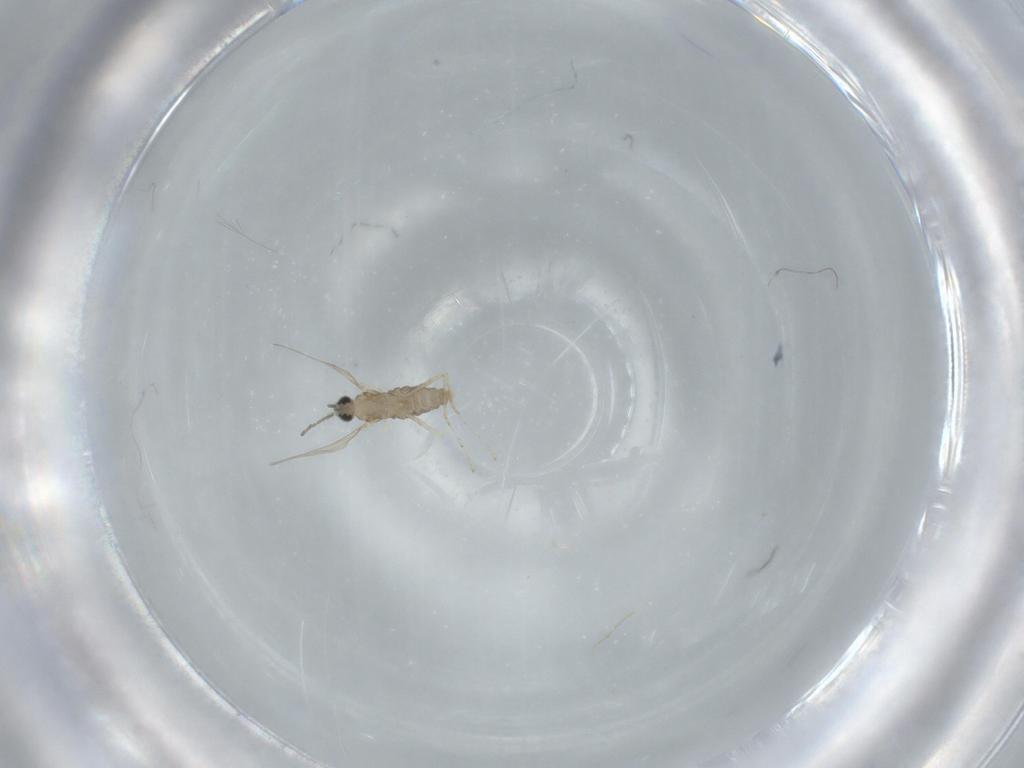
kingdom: Animalia
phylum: Arthropoda
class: Insecta
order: Diptera
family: Cecidomyiidae
